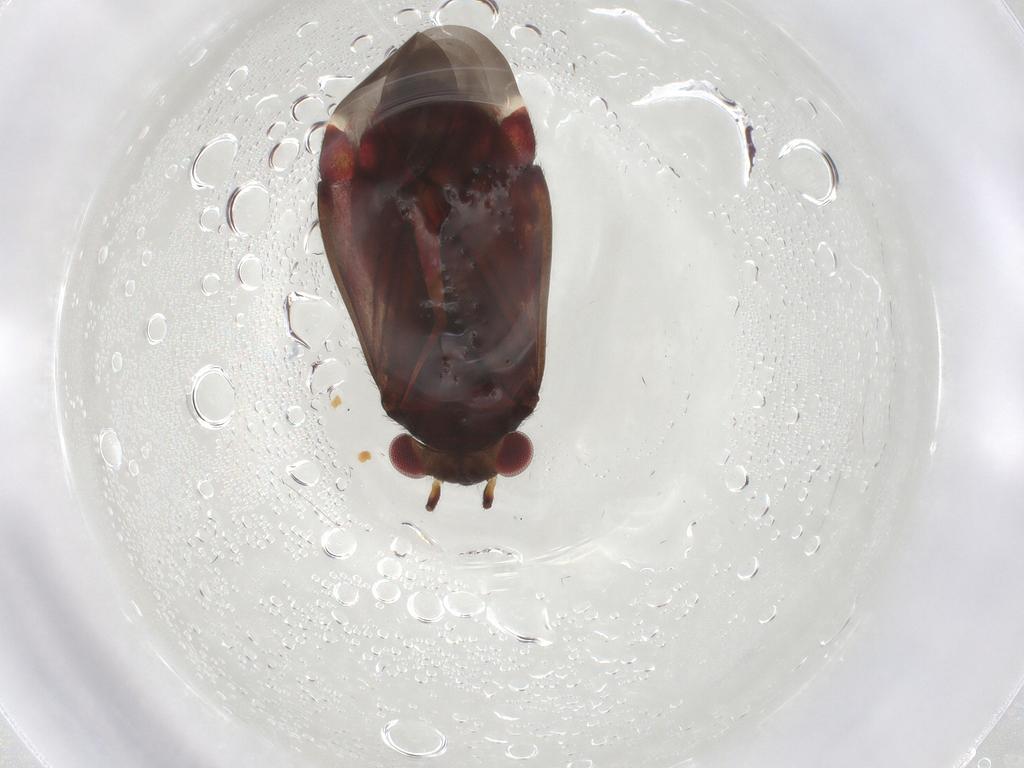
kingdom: Animalia
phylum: Arthropoda
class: Insecta
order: Hemiptera
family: Miridae
